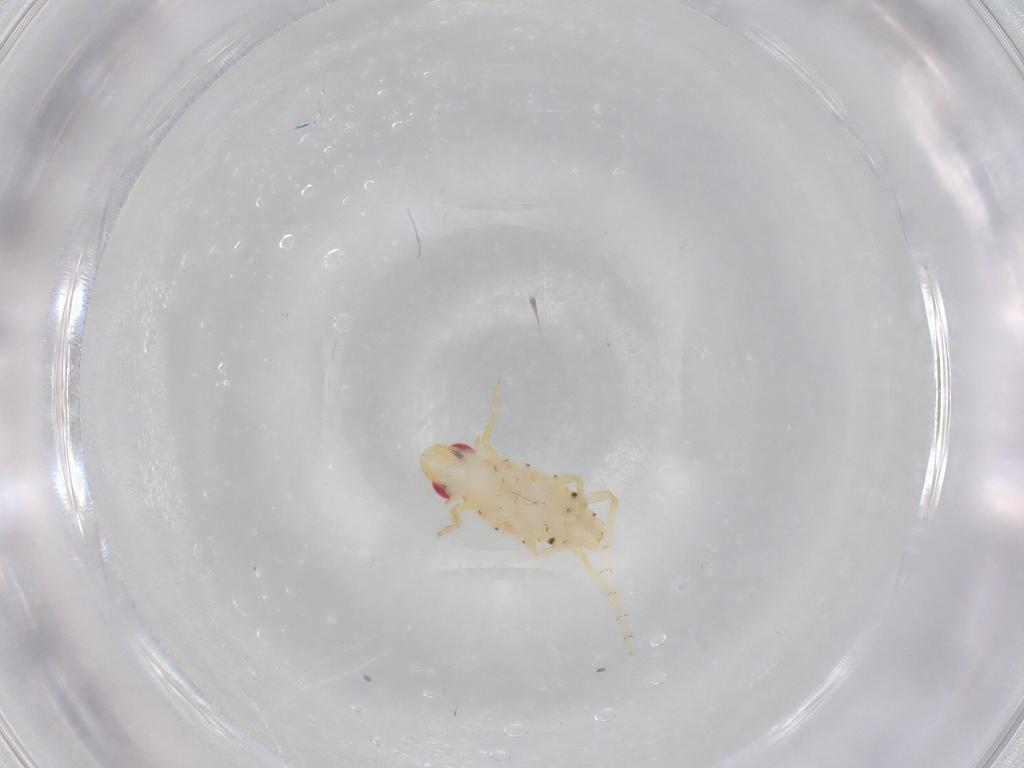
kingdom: Animalia
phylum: Arthropoda
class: Insecta
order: Hemiptera
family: Tropiduchidae
